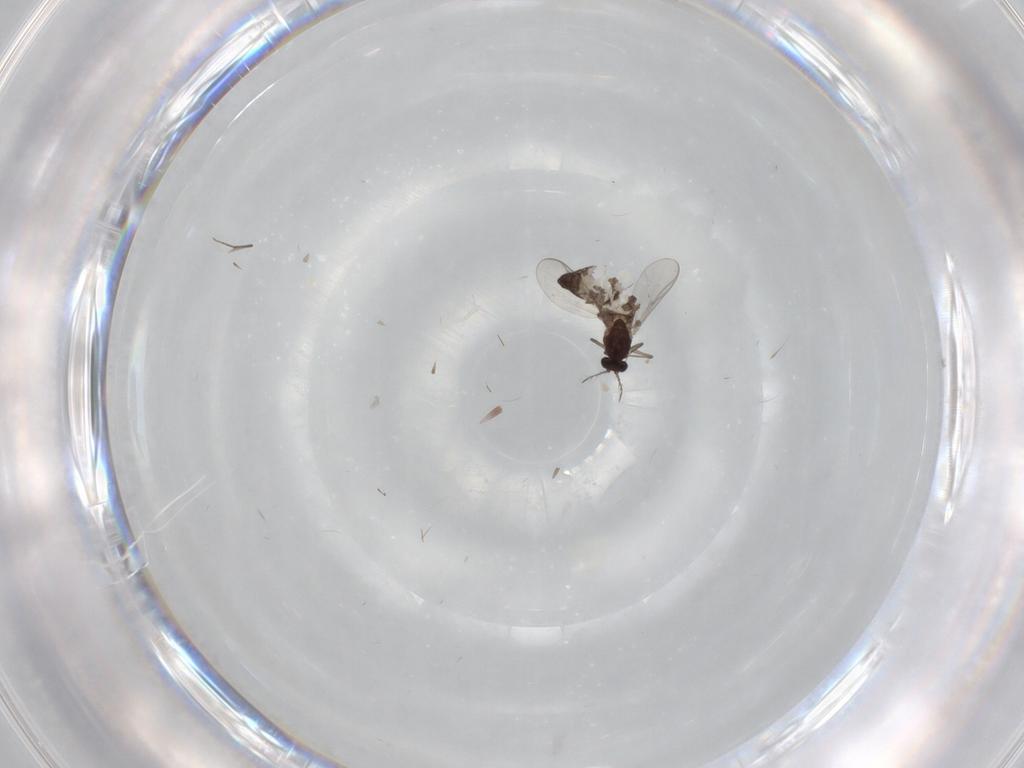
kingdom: Animalia
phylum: Arthropoda
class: Insecta
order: Diptera
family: Chironomidae
